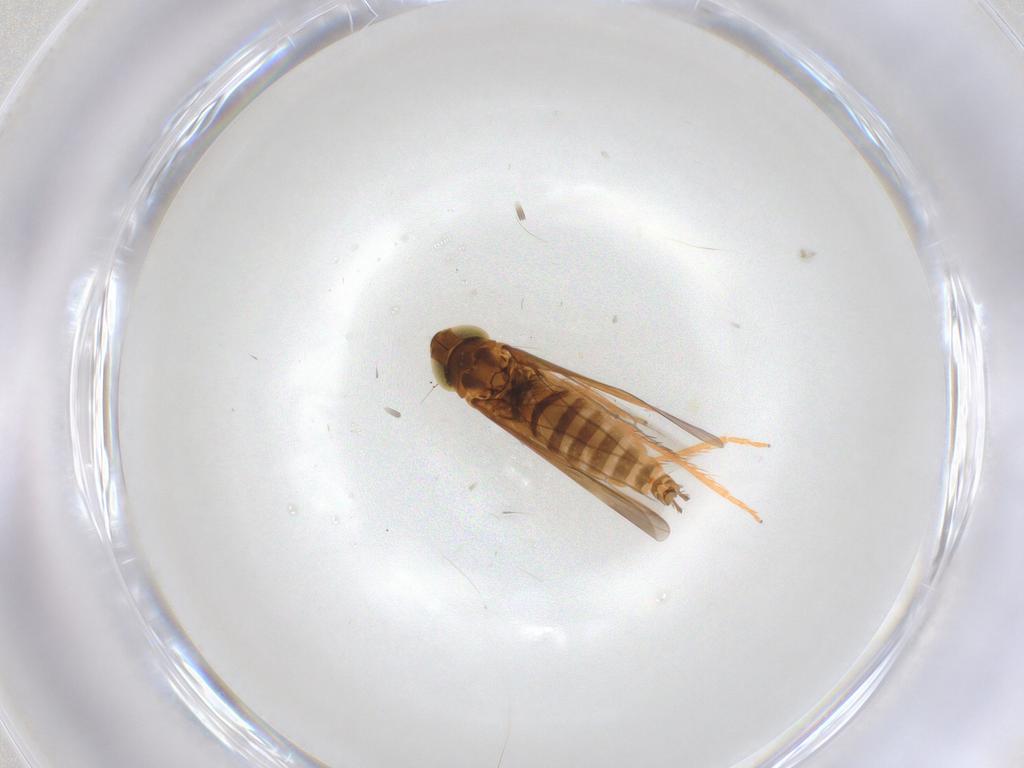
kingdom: Animalia
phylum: Arthropoda
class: Insecta
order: Hemiptera
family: Cicadellidae
